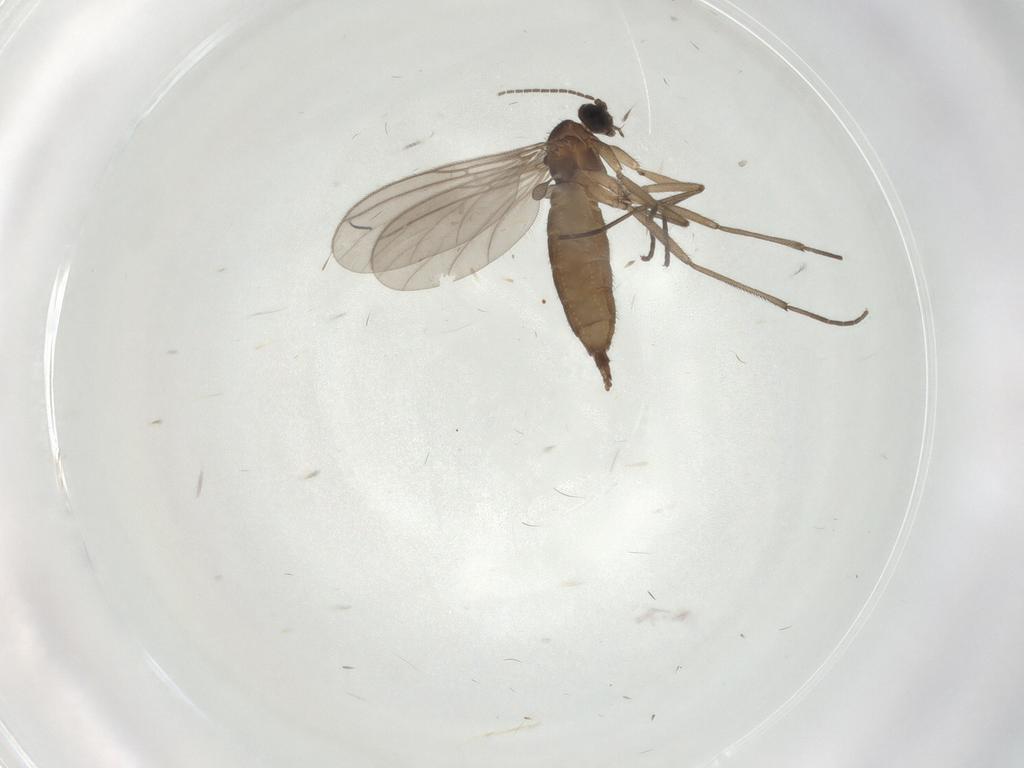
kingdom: Animalia
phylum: Arthropoda
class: Insecta
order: Diptera
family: Sciaridae
